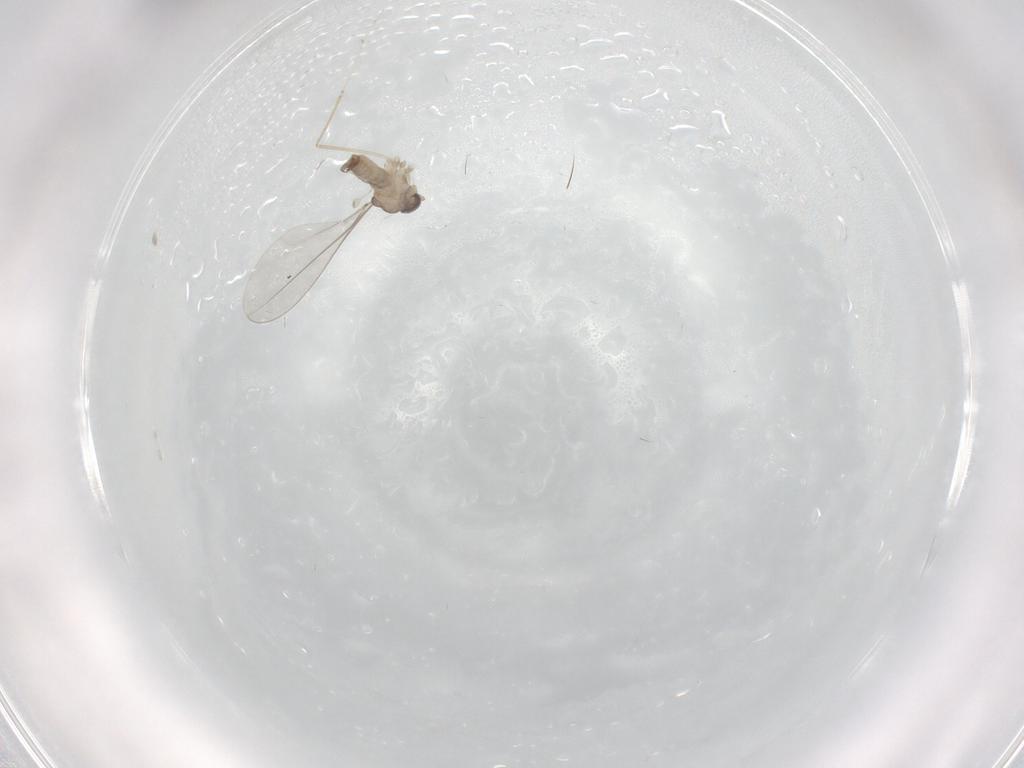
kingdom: Animalia
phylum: Arthropoda
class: Insecta
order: Diptera
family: Cecidomyiidae
